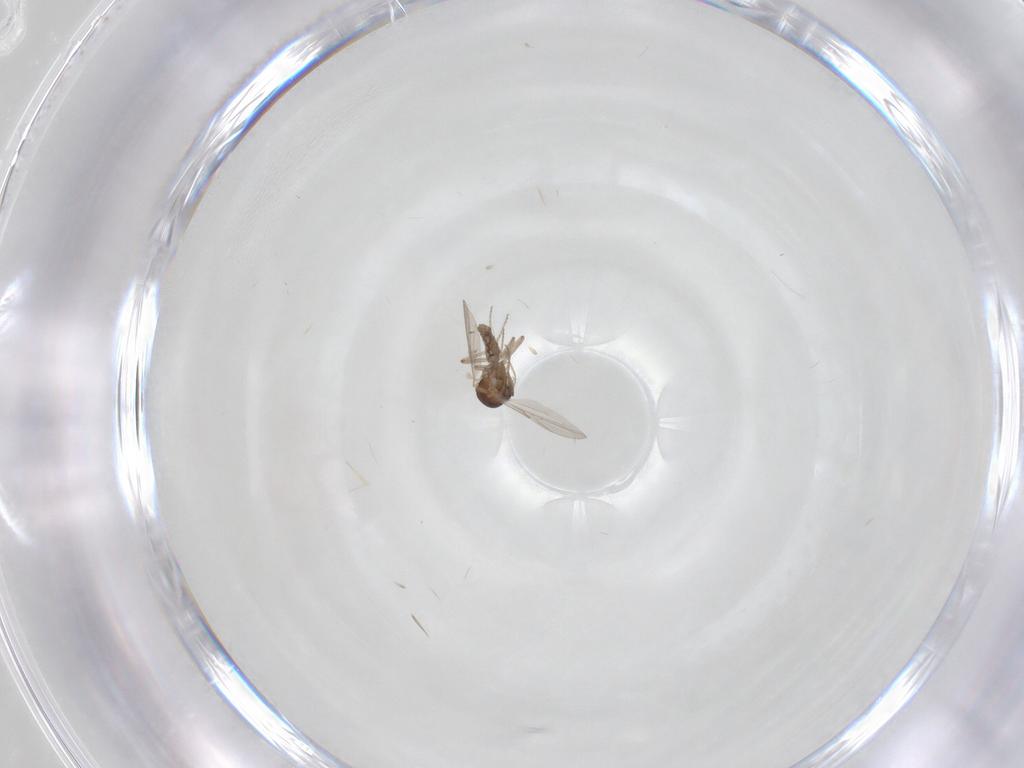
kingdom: Animalia
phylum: Arthropoda
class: Insecta
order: Diptera
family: Ceratopogonidae
